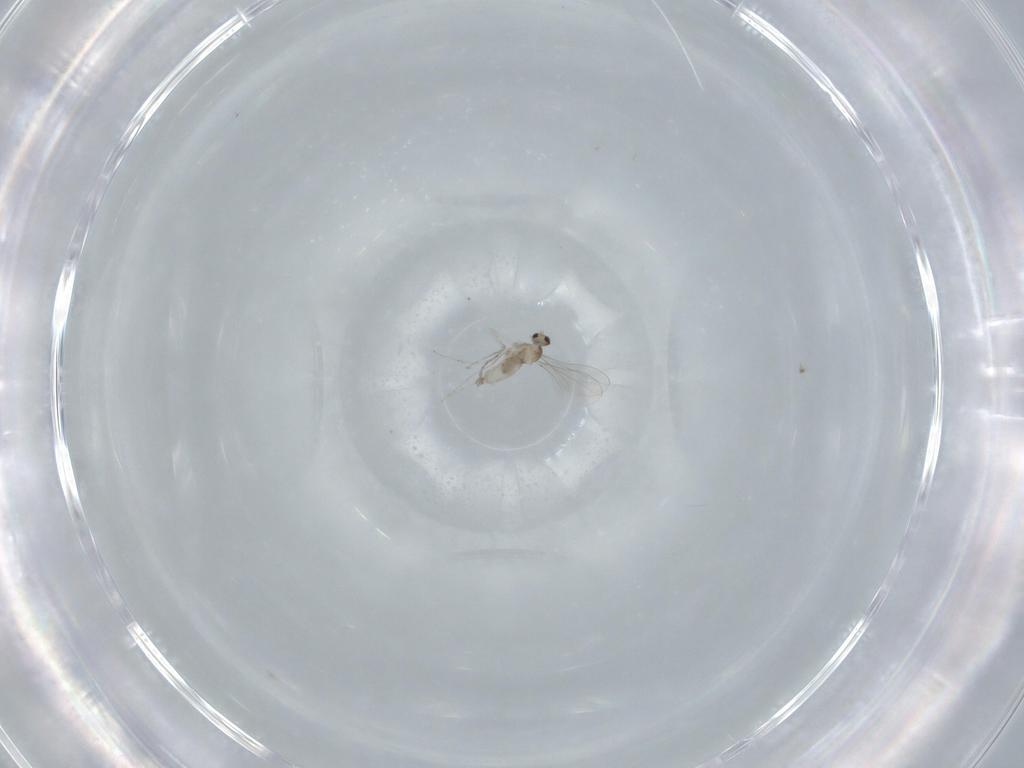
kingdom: Animalia
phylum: Arthropoda
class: Insecta
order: Diptera
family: Cecidomyiidae
